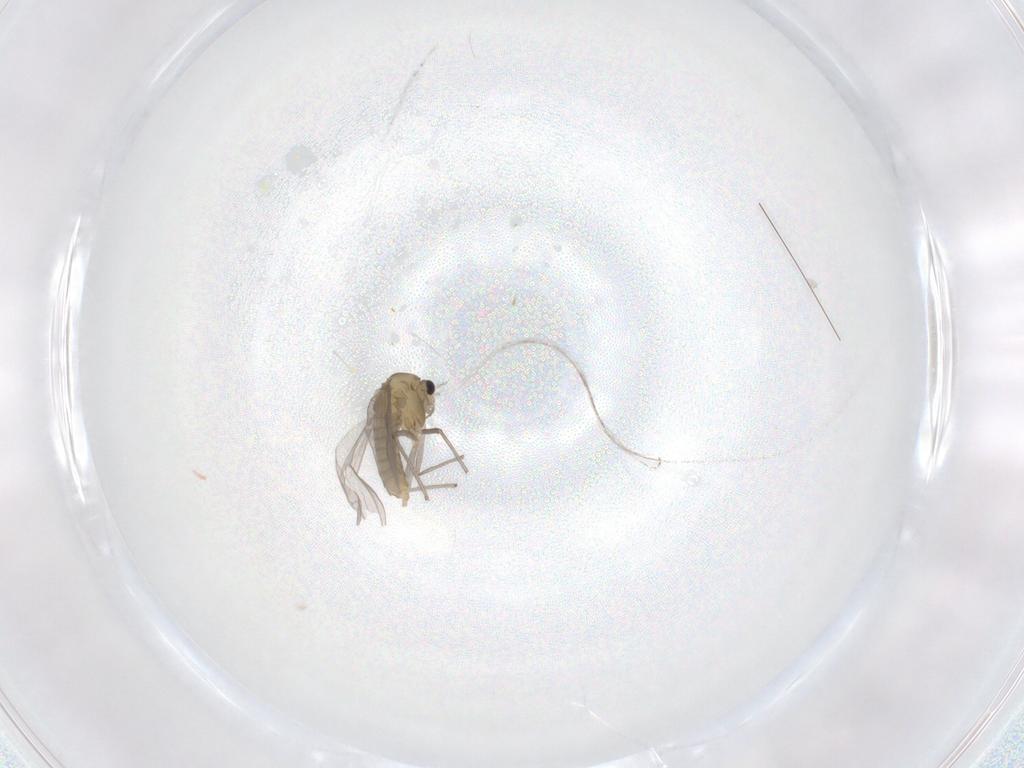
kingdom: Animalia
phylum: Arthropoda
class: Insecta
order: Diptera
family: Chironomidae
